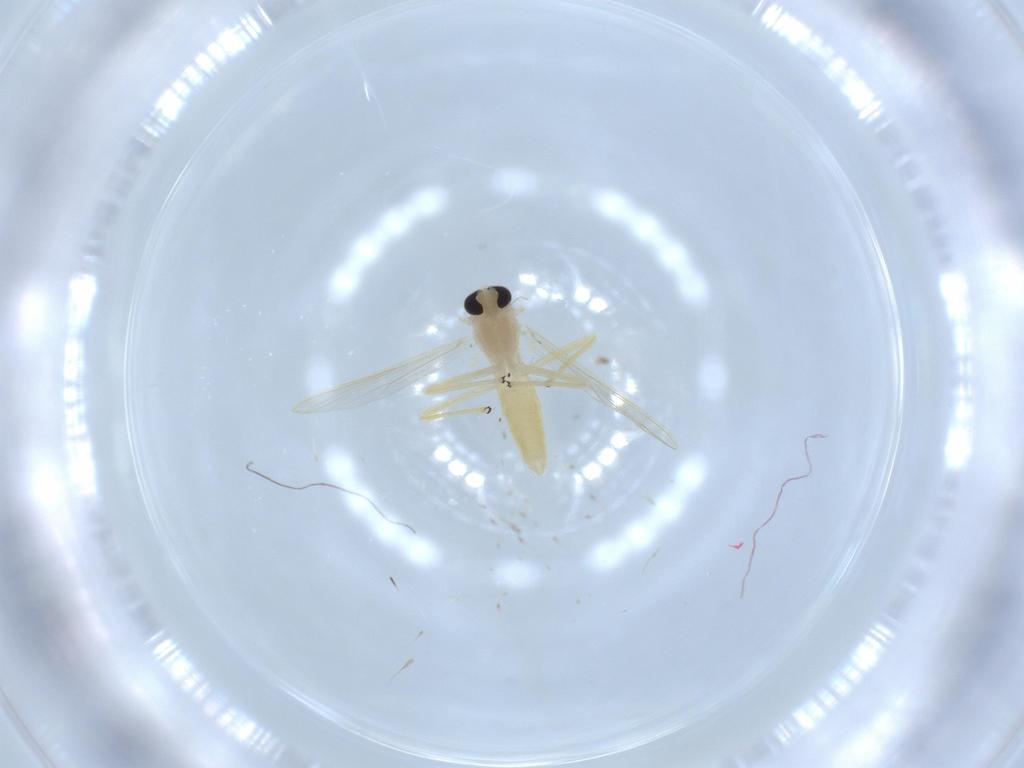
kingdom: Animalia
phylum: Arthropoda
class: Insecta
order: Diptera
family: Chironomidae
